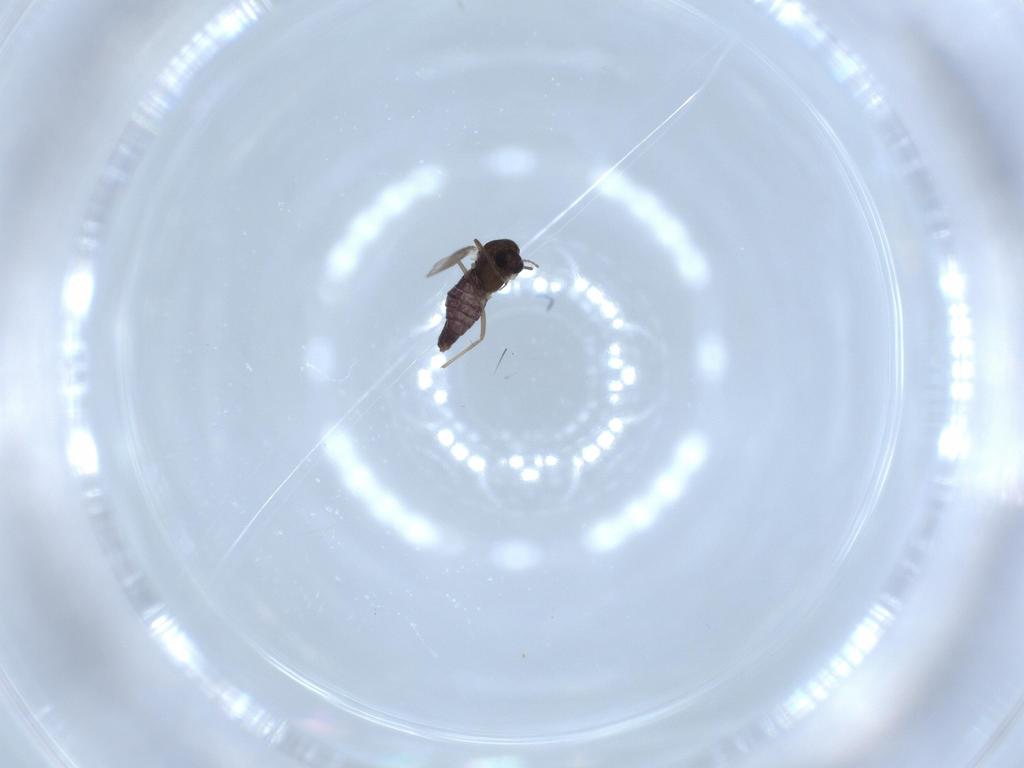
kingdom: Animalia
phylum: Arthropoda
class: Insecta
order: Diptera
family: Chironomidae
